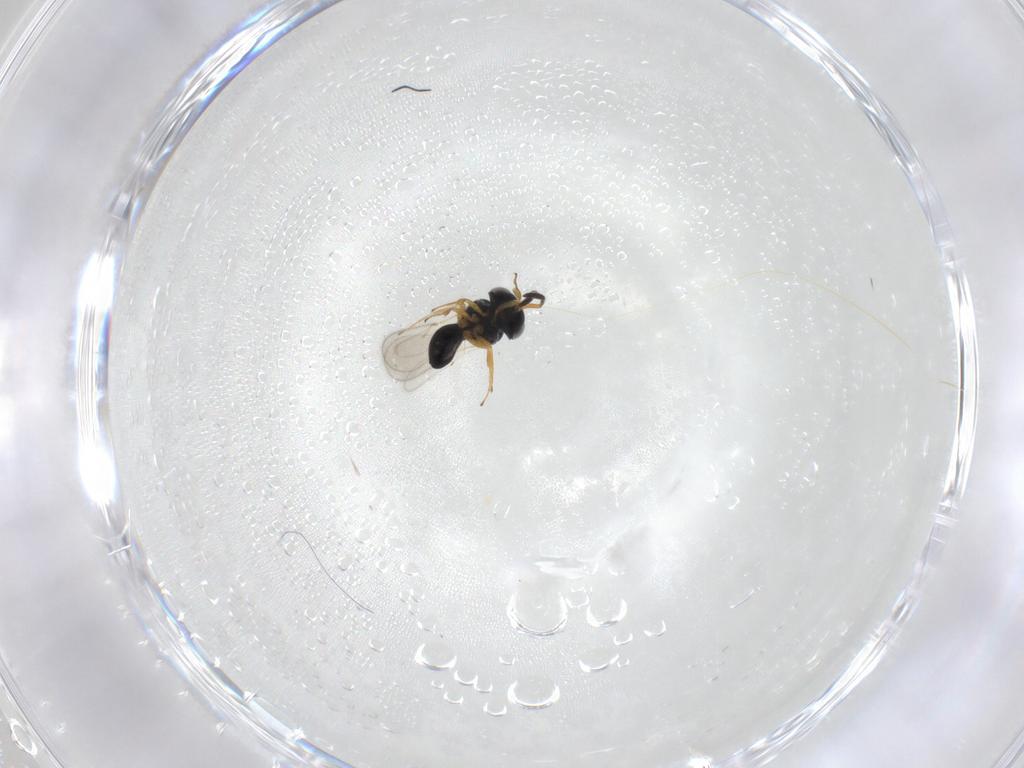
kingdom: Animalia
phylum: Arthropoda
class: Insecta
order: Hymenoptera
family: Scelionidae
